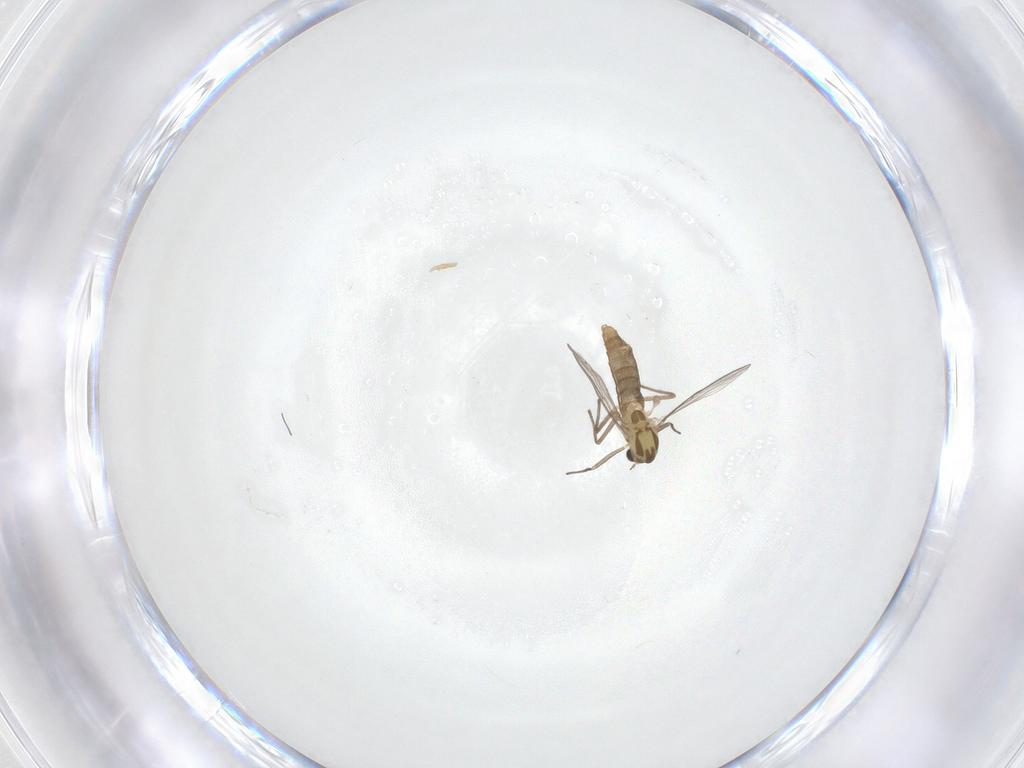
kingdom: Animalia
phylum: Arthropoda
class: Insecta
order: Diptera
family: Chironomidae
